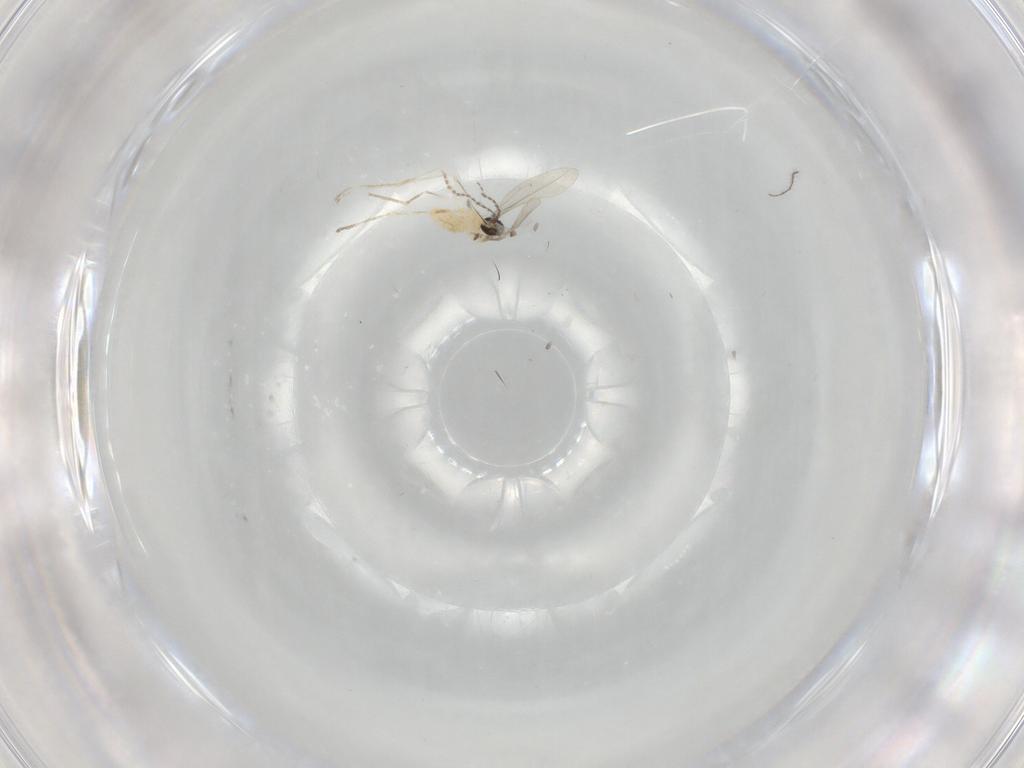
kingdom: Animalia
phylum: Arthropoda
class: Insecta
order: Diptera
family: Ceratopogonidae
